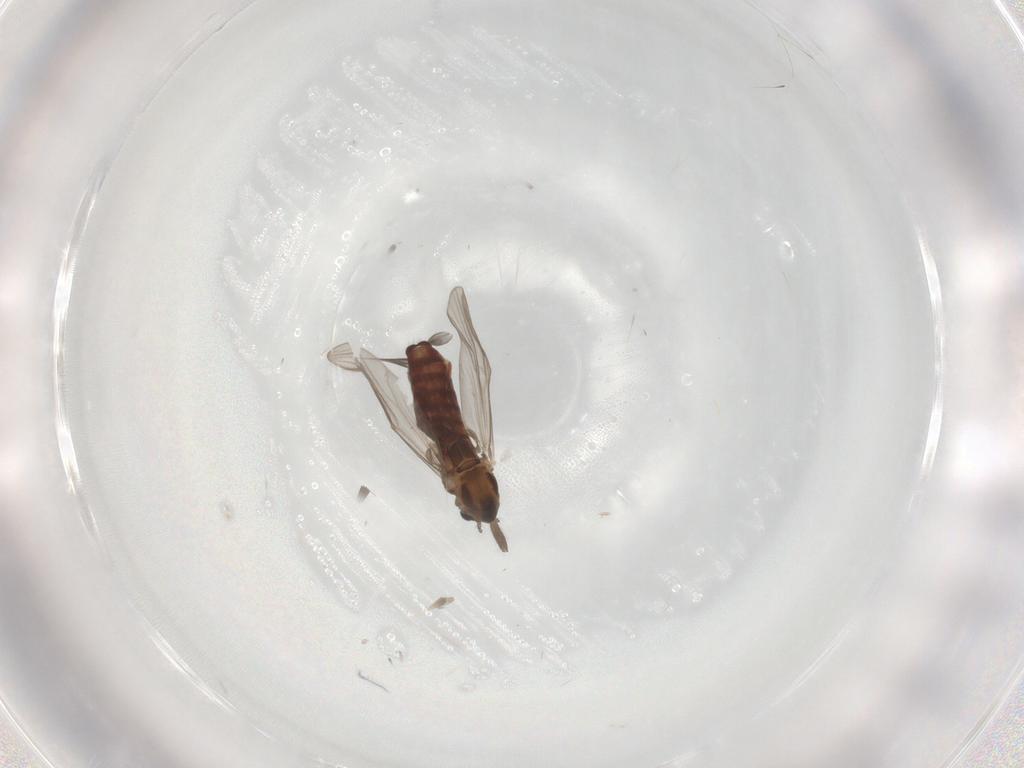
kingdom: Animalia
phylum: Arthropoda
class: Insecta
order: Diptera
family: Chironomidae
